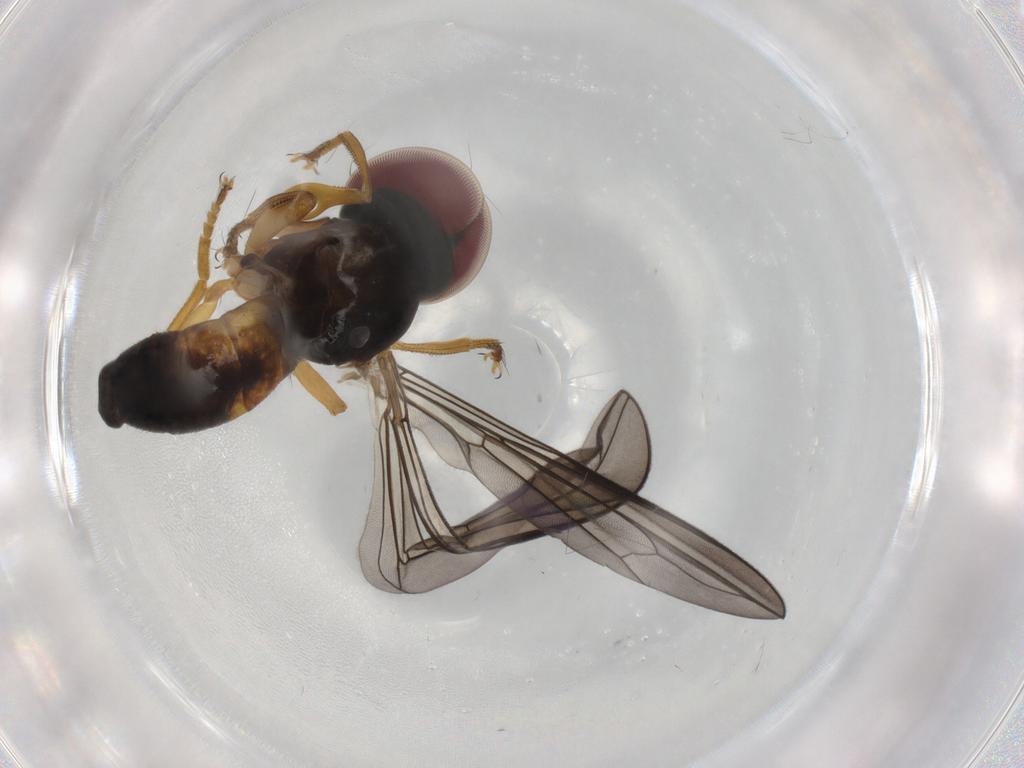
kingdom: Animalia
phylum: Arthropoda
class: Insecta
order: Diptera
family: Pipunculidae
